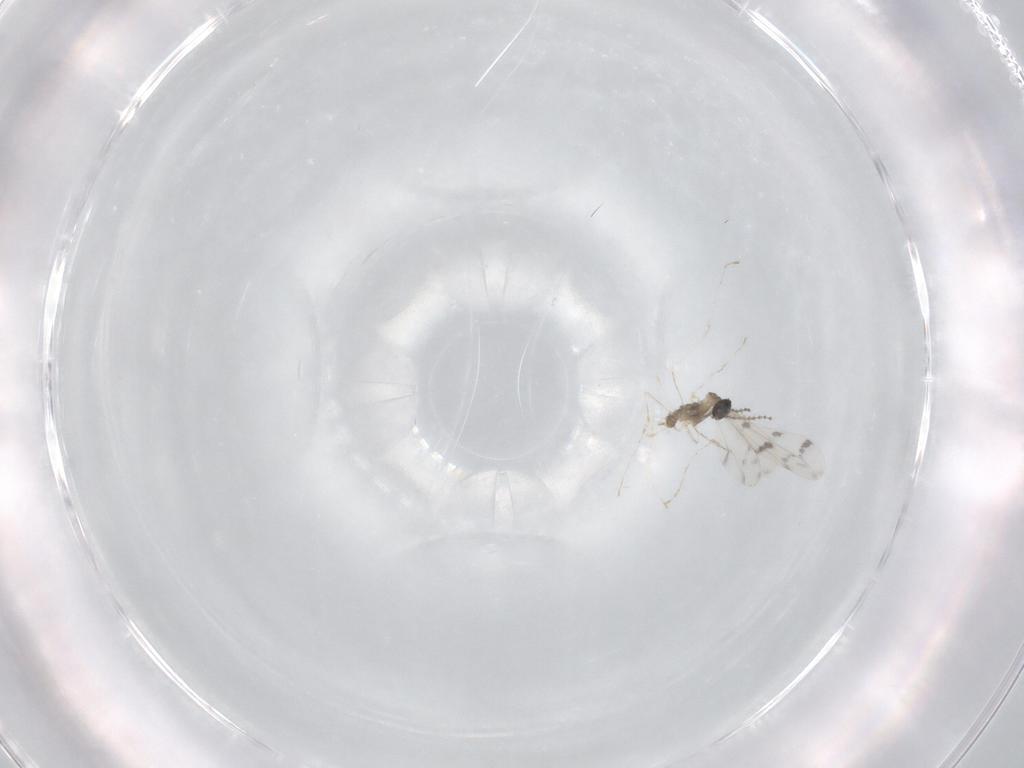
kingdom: Animalia
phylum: Arthropoda
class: Insecta
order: Diptera
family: Cecidomyiidae
